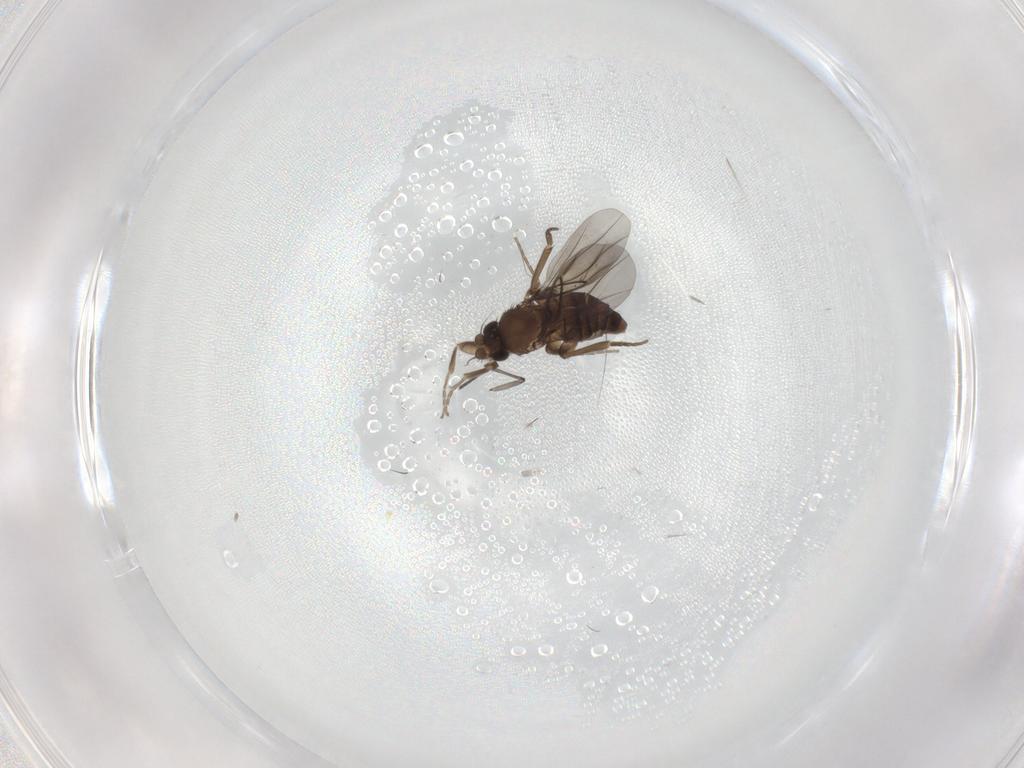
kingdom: Animalia
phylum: Arthropoda
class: Insecta
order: Diptera
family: Phoridae
